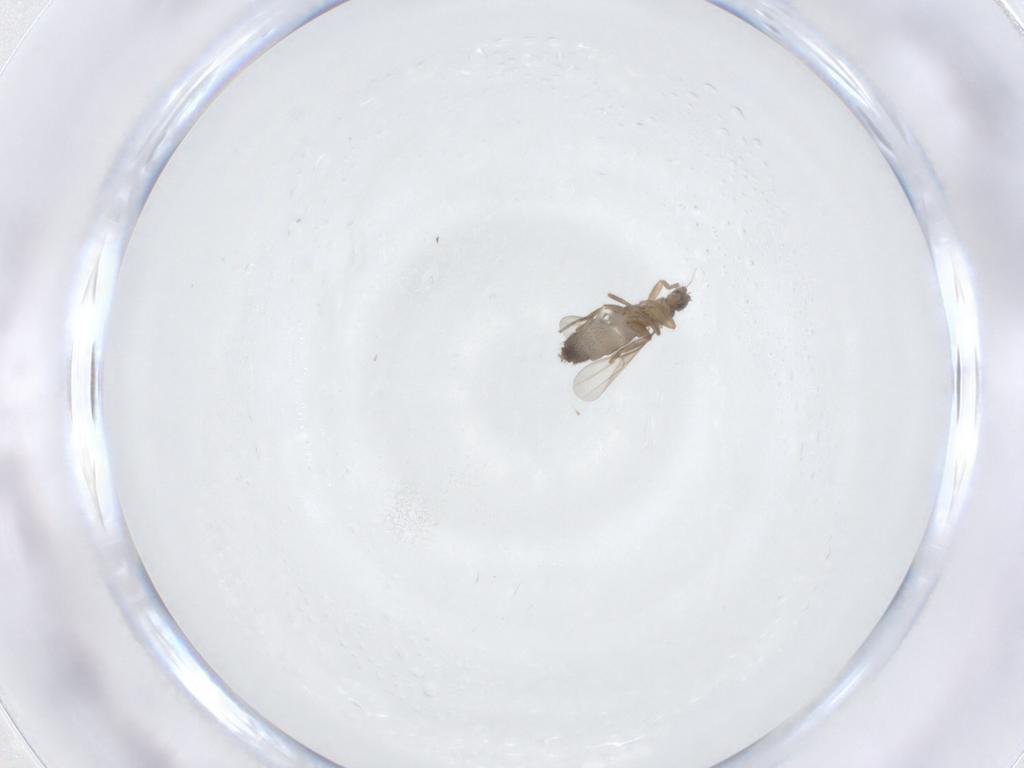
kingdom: Animalia
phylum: Arthropoda
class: Insecta
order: Diptera
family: Phoridae
